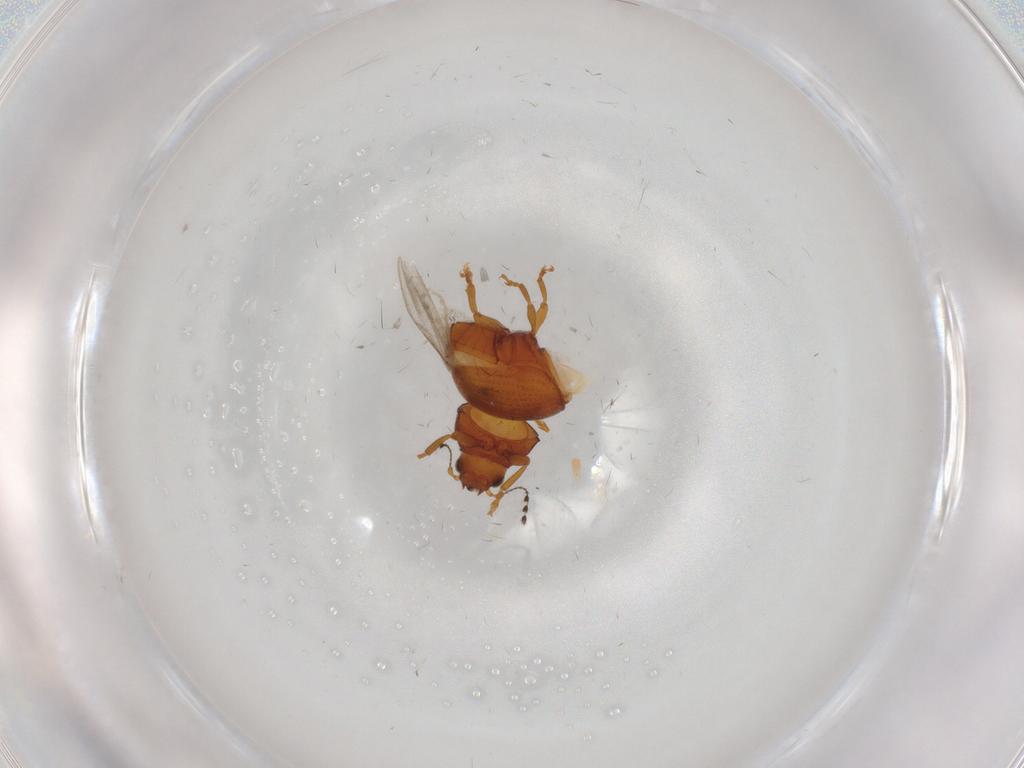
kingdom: Animalia
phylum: Arthropoda
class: Insecta
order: Coleoptera
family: Anthribidae
